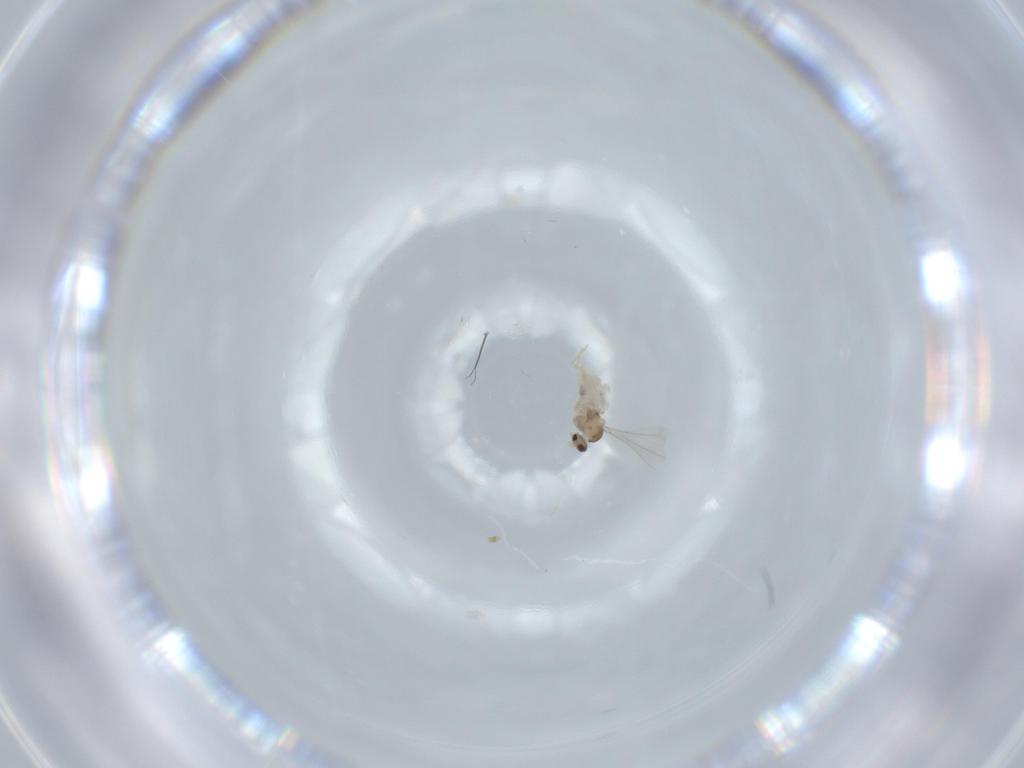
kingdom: Animalia
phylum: Arthropoda
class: Insecta
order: Diptera
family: Cecidomyiidae
